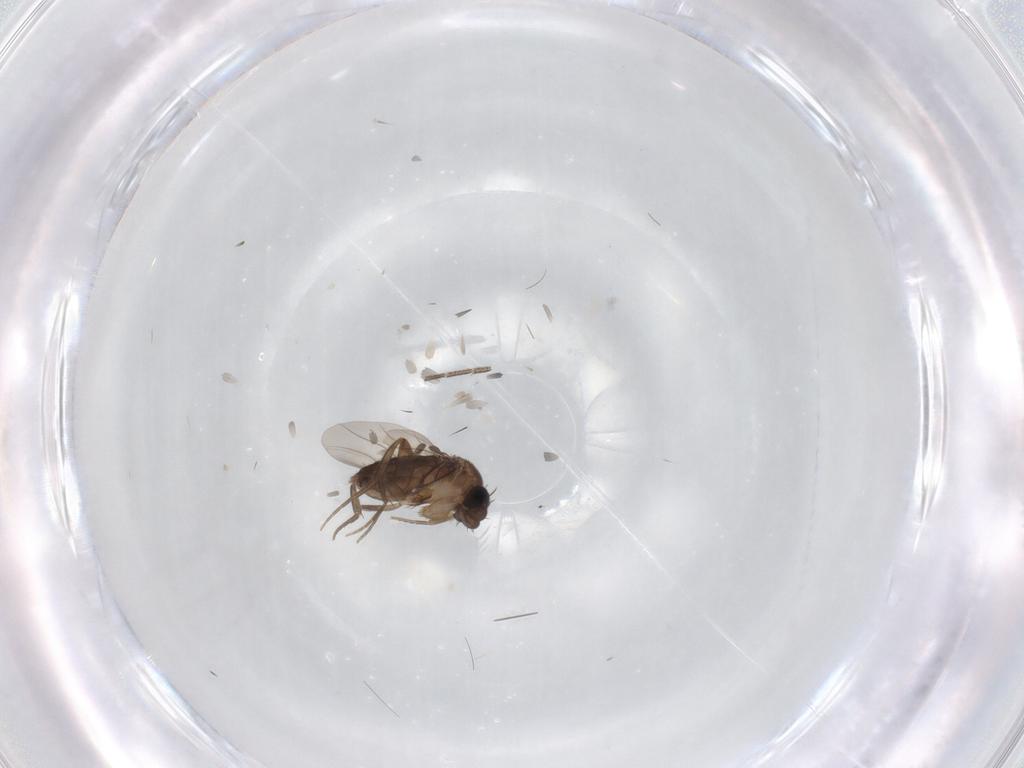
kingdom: Animalia
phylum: Arthropoda
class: Insecta
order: Diptera
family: Phoridae
